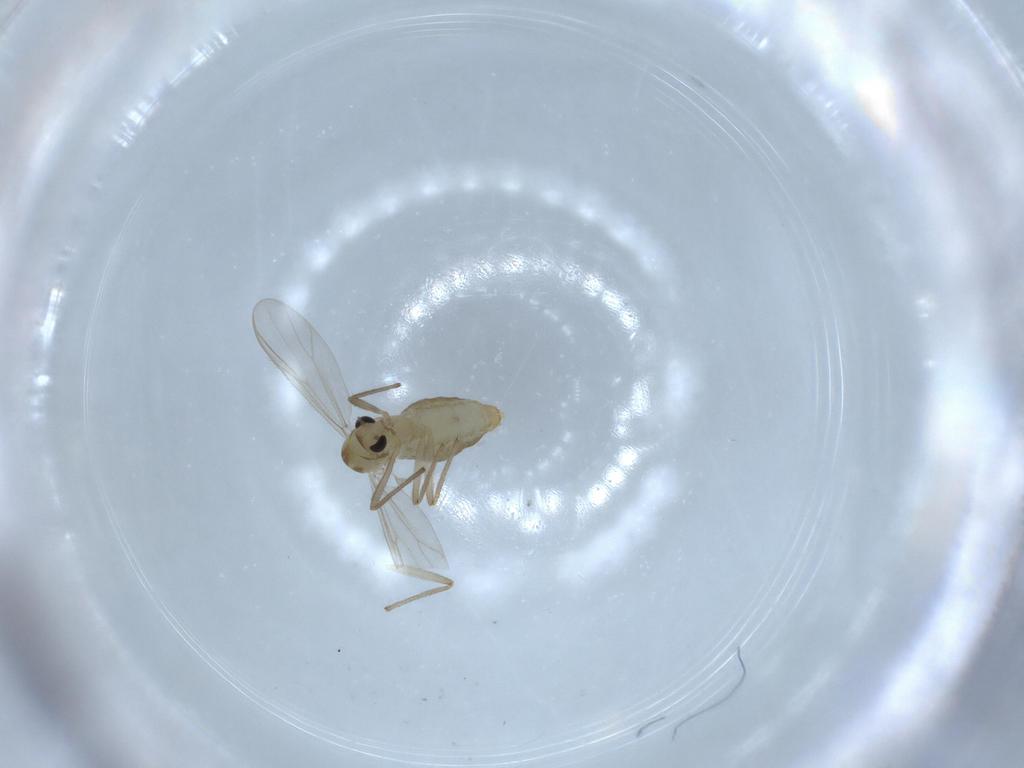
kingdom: Animalia
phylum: Arthropoda
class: Insecta
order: Diptera
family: Chironomidae
